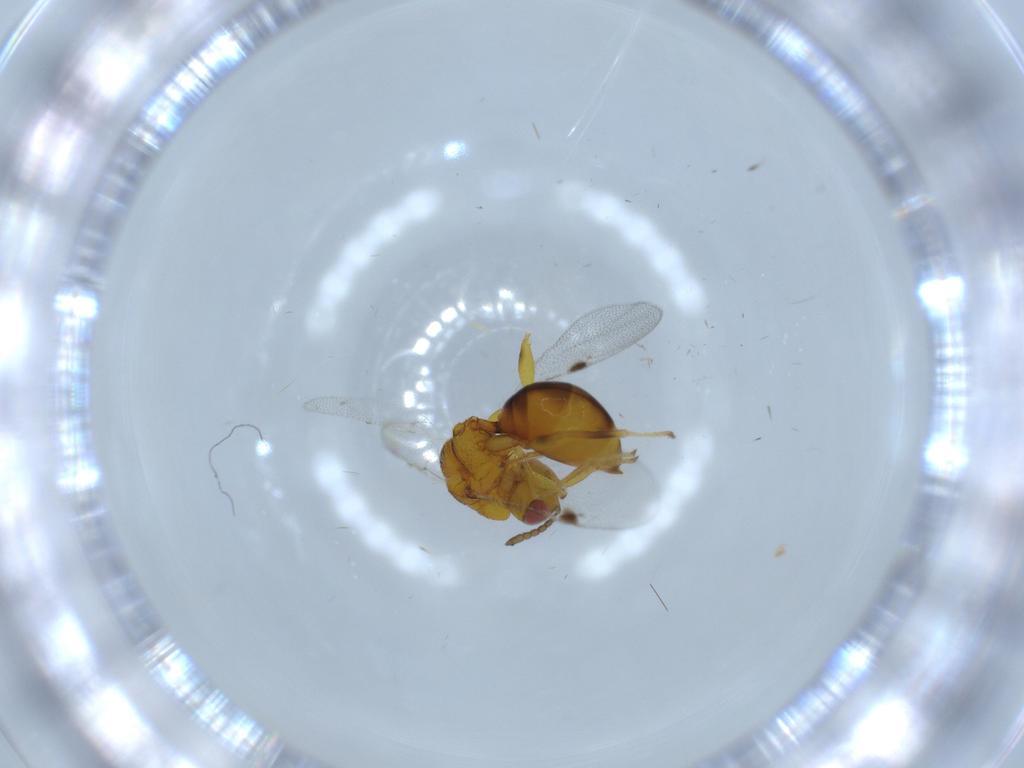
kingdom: Animalia
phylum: Arthropoda
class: Insecta
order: Hymenoptera
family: Eurytomidae
